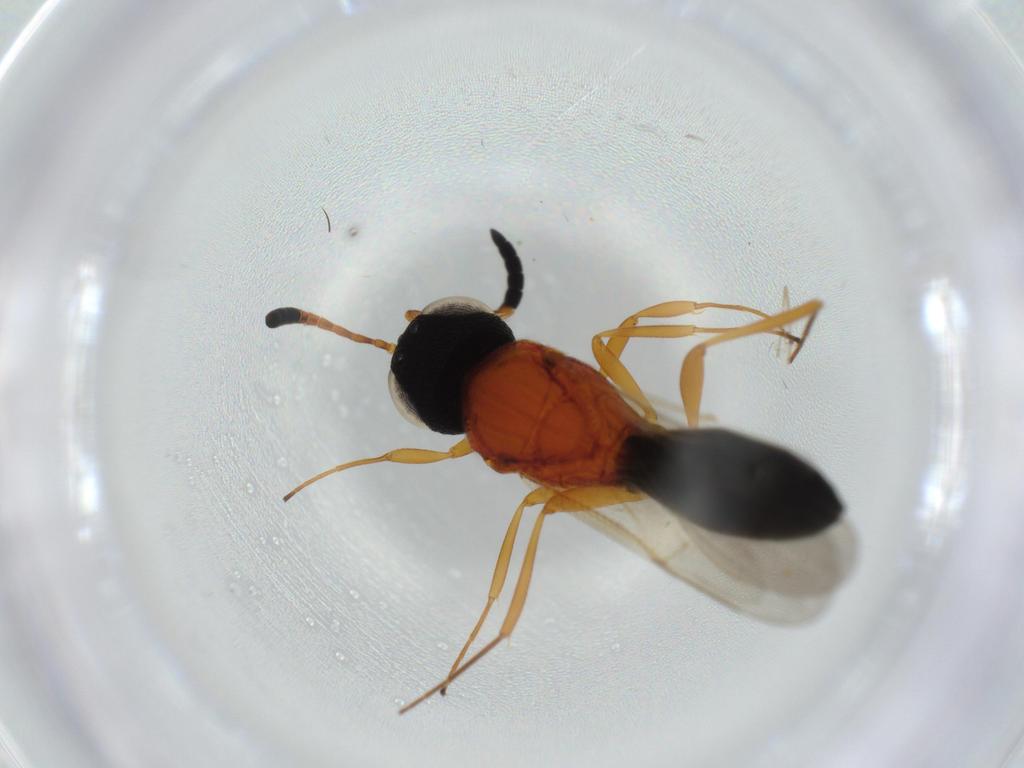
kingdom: Animalia
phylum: Arthropoda
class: Insecta
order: Hymenoptera
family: Scelionidae
